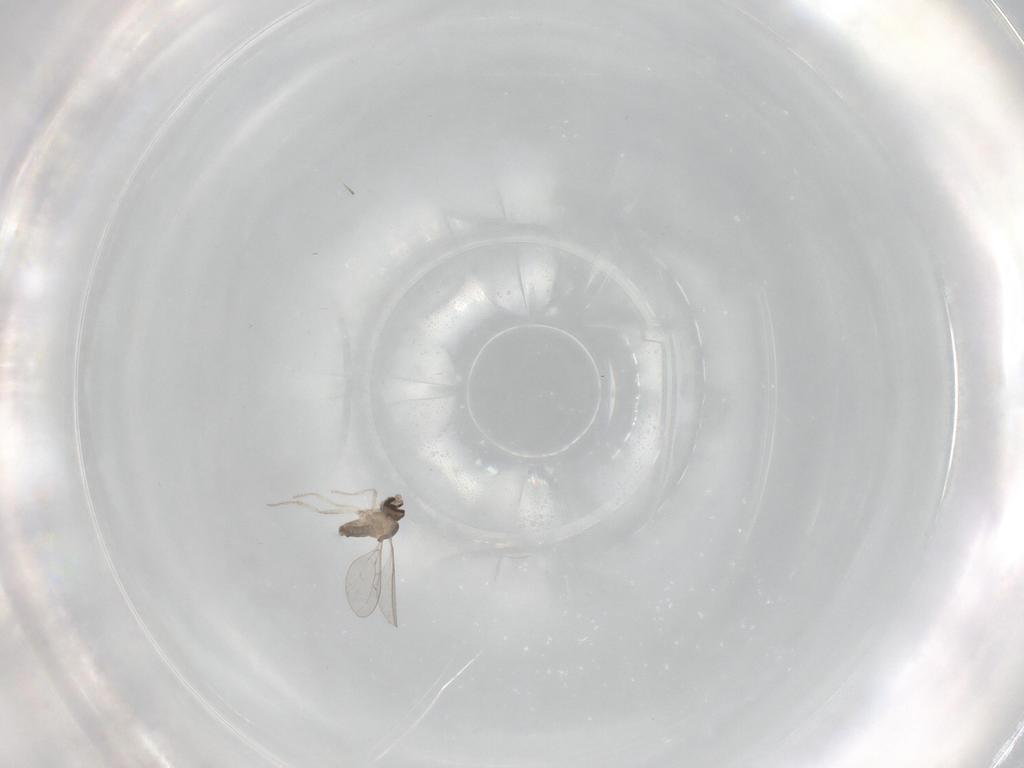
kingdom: Animalia
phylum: Arthropoda
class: Insecta
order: Diptera
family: Cecidomyiidae
